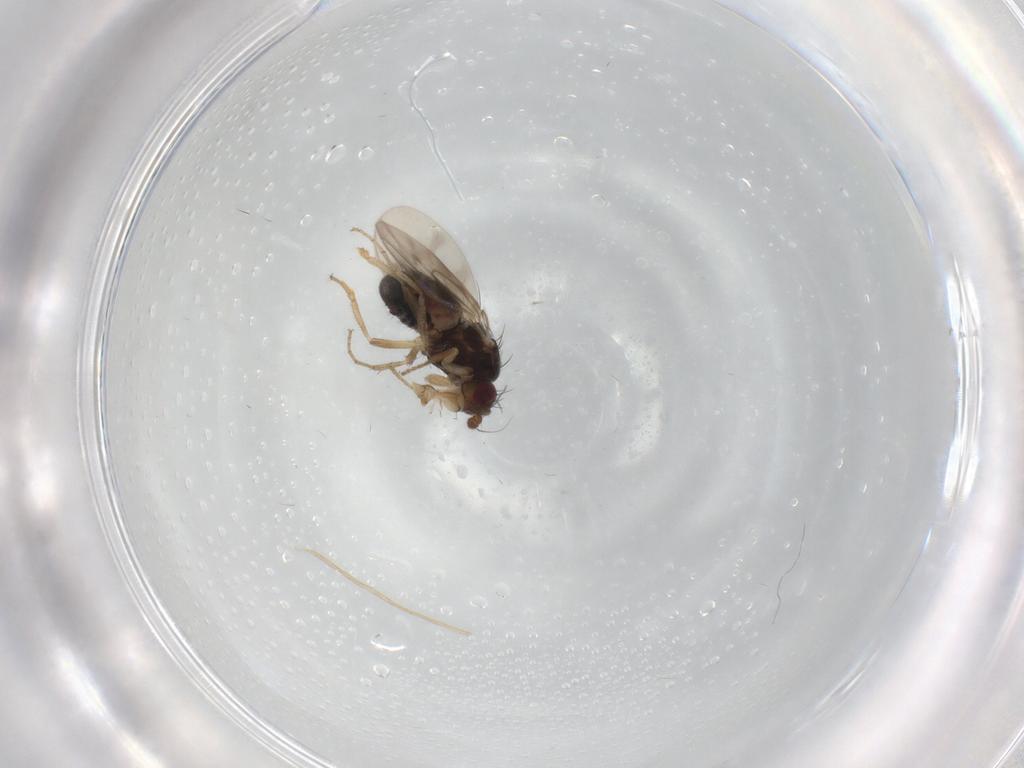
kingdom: Animalia
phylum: Arthropoda
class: Insecta
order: Diptera
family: Sphaeroceridae
